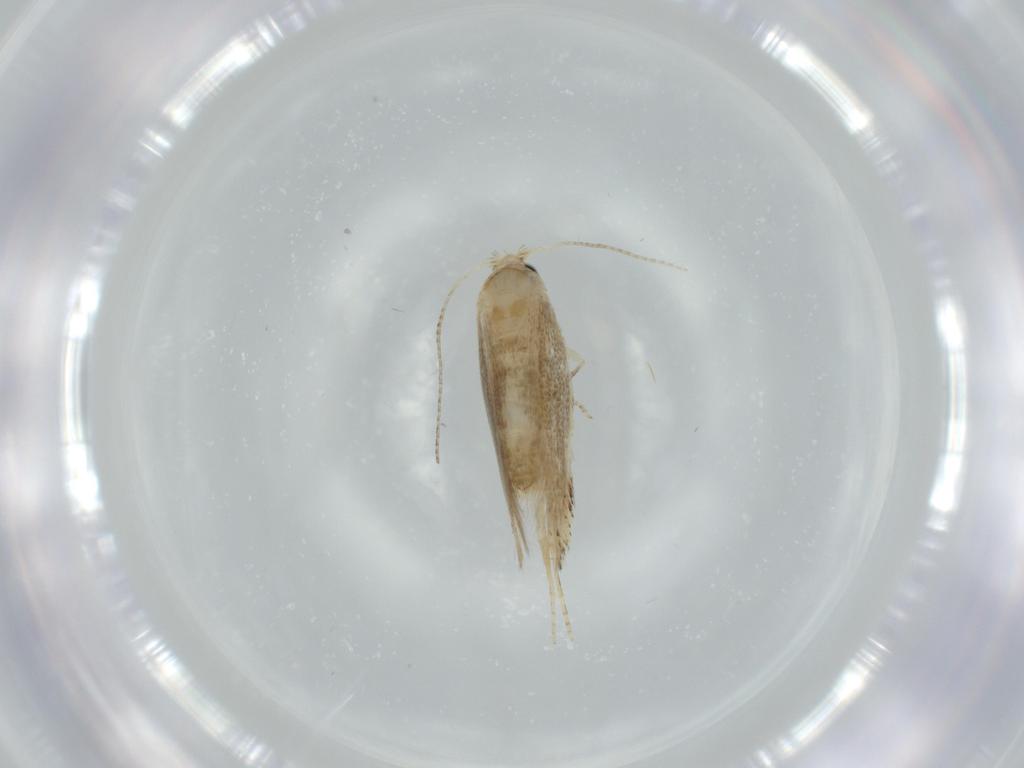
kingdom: Animalia
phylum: Arthropoda
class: Insecta
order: Lepidoptera
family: Bucculatricidae
